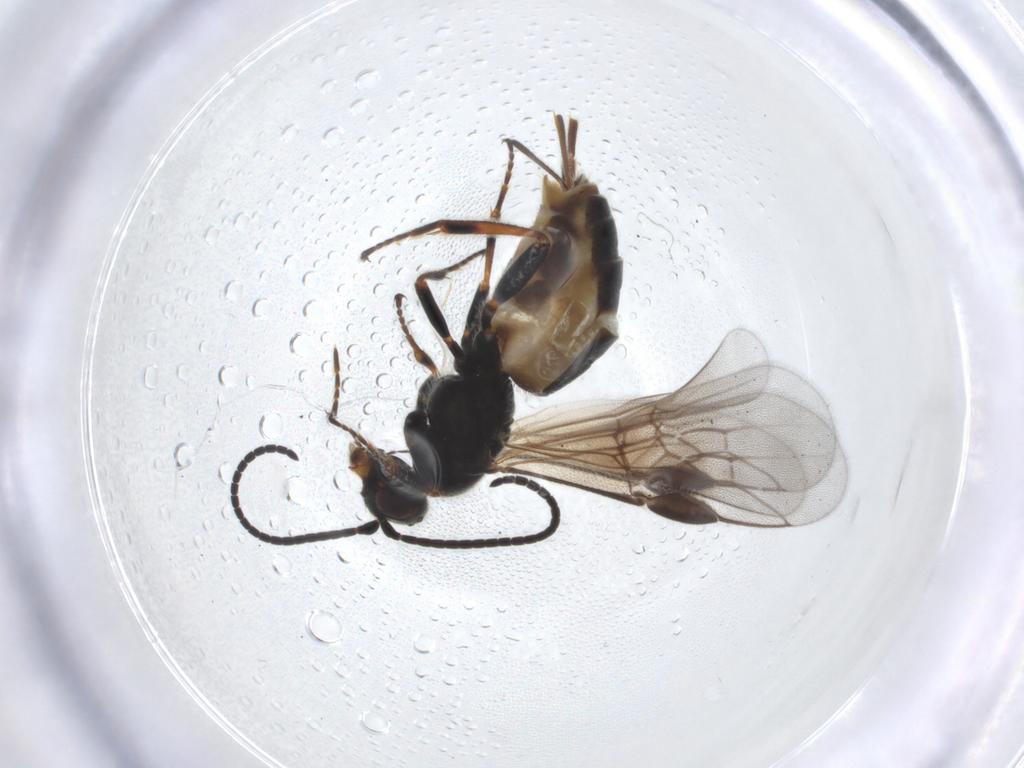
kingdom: Animalia
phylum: Arthropoda
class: Insecta
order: Hymenoptera
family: Braconidae
